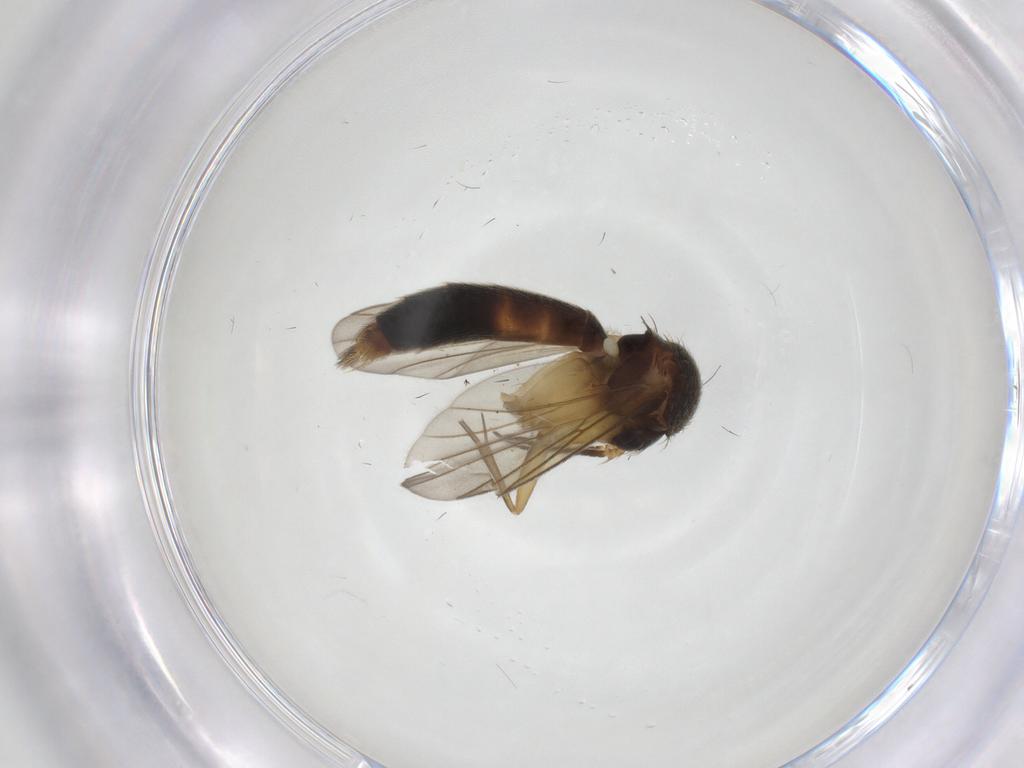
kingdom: Animalia
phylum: Arthropoda
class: Insecta
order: Diptera
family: Mycetophilidae
